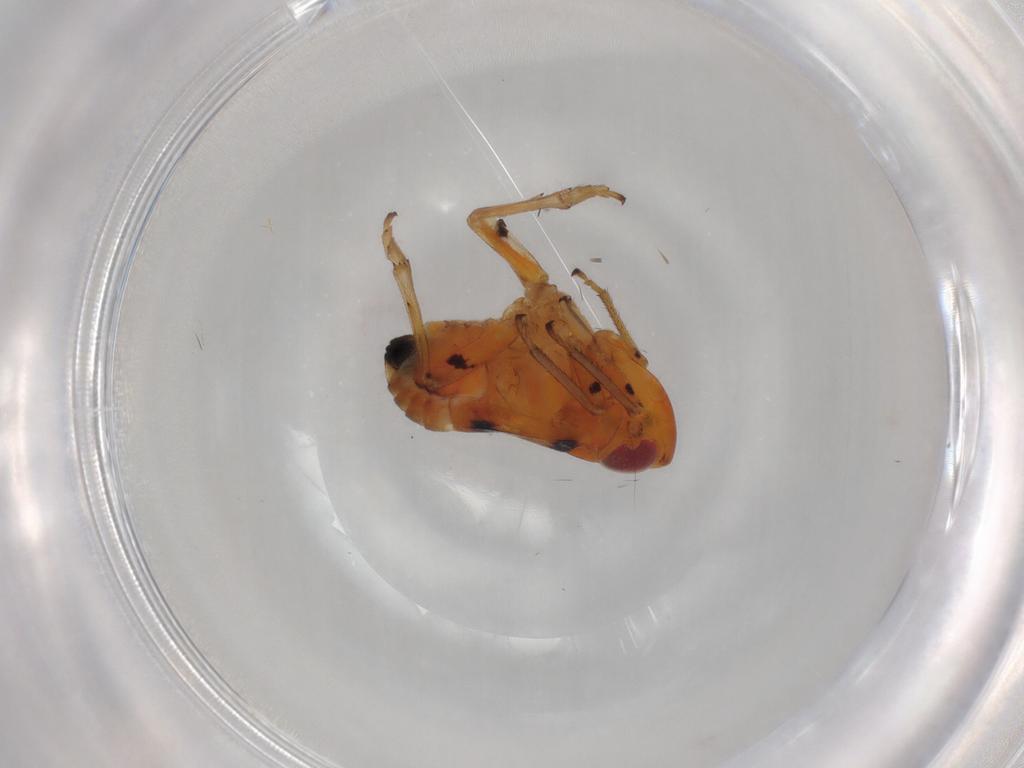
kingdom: Animalia
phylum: Arthropoda
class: Insecta
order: Hemiptera
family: Caliscelidae
